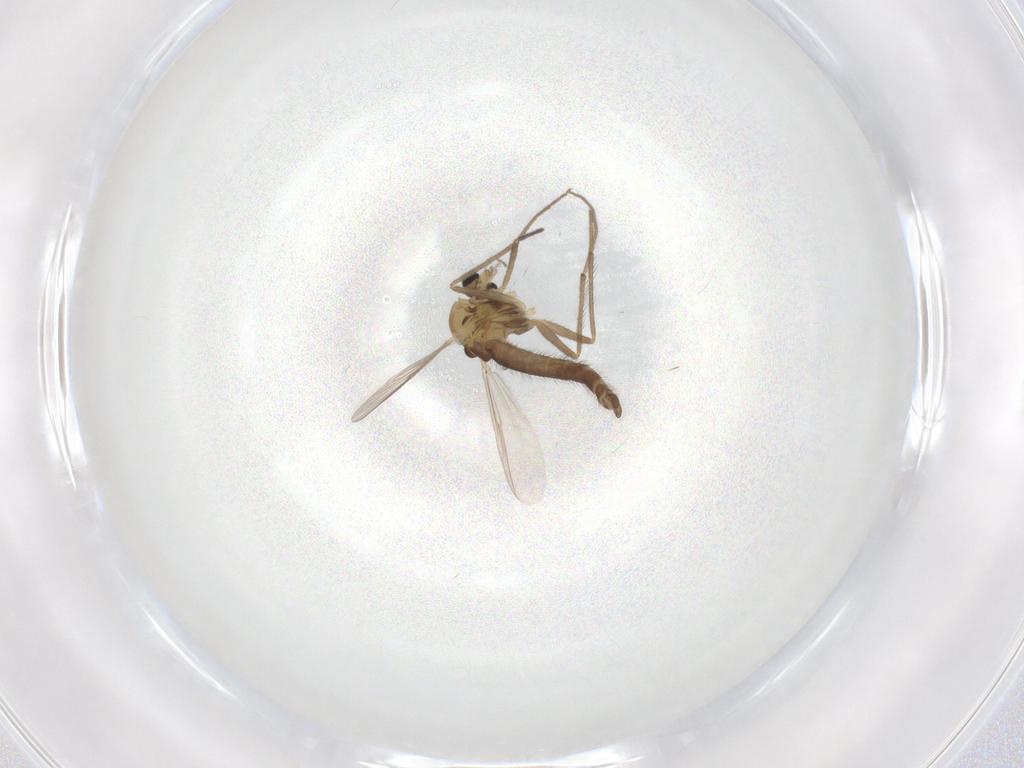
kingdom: Animalia
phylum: Arthropoda
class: Insecta
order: Diptera
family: Chironomidae
